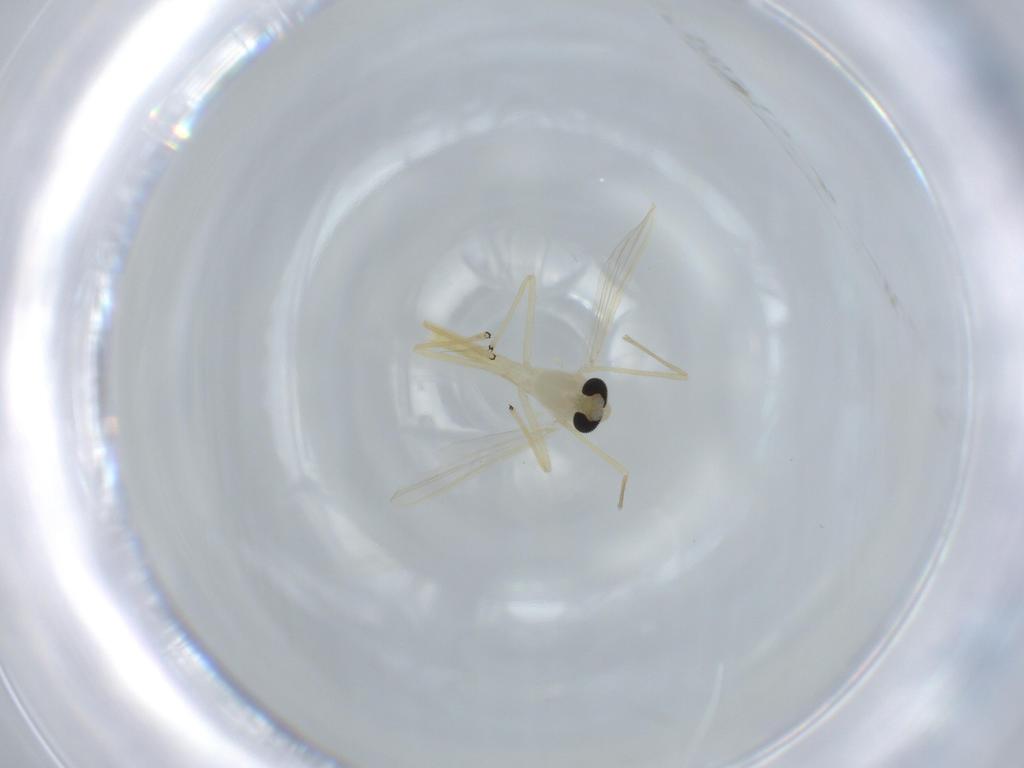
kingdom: Animalia
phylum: Arthropoda
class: Insecta
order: Diptera
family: Chironomidae
